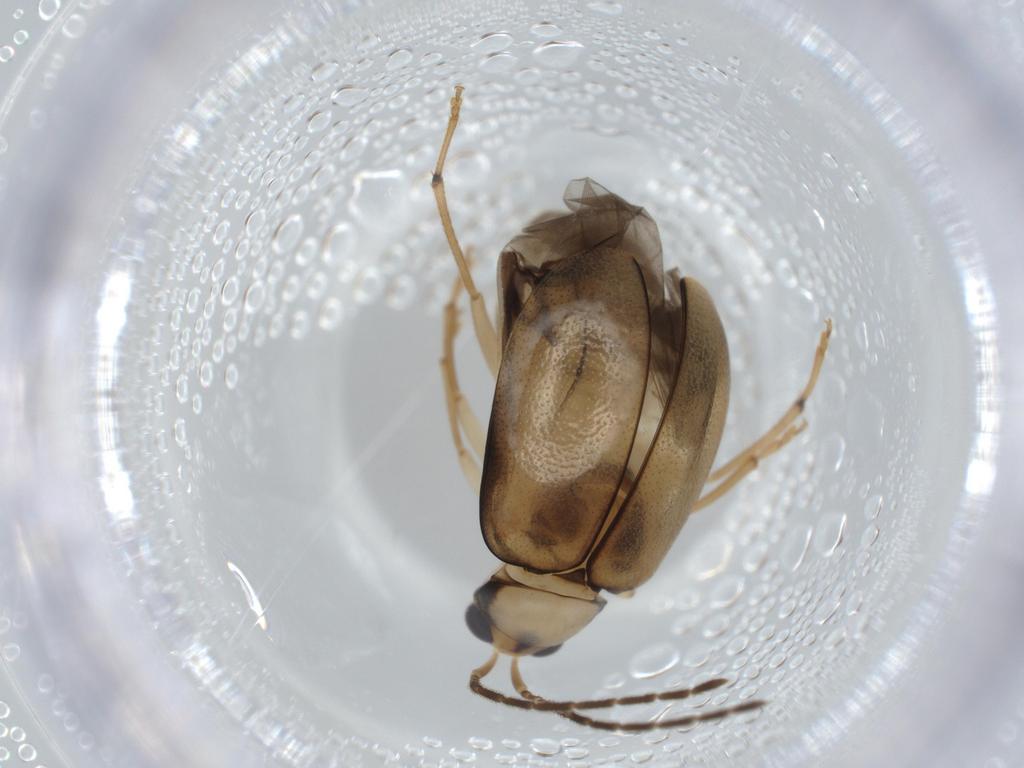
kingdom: Animalia
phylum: Arthropoda
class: Insecta
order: Coleoptera
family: Chrysomelidae
